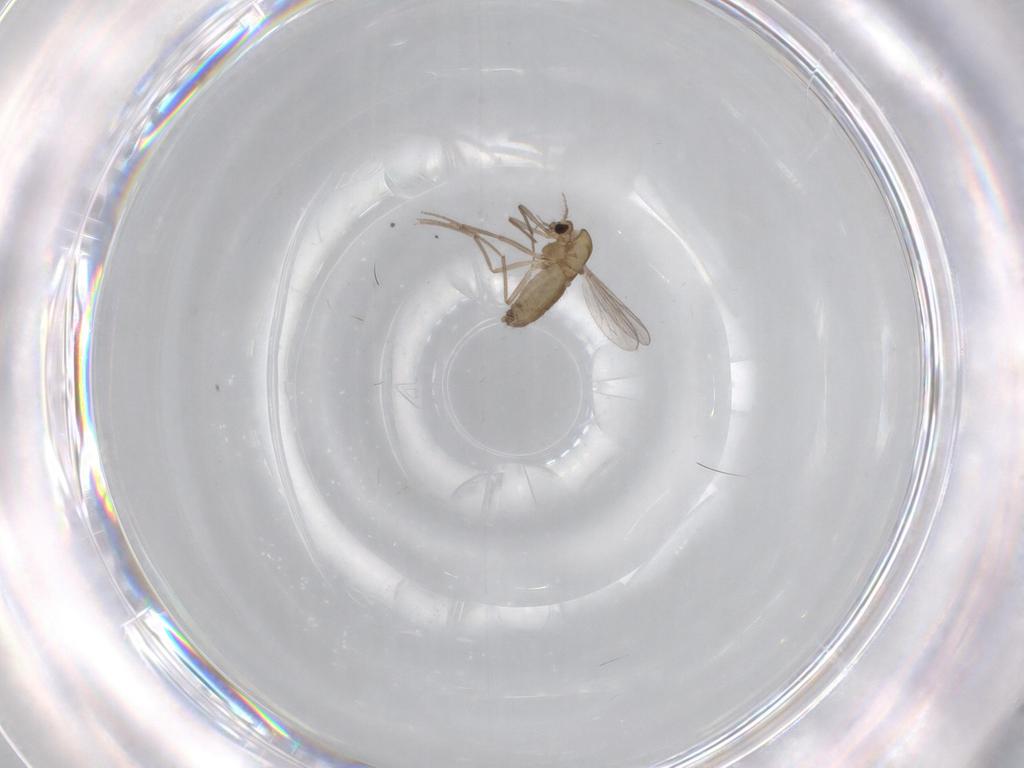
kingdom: Animalia
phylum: Arthropoda
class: Insecta
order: Diptera
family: Chironomidae
